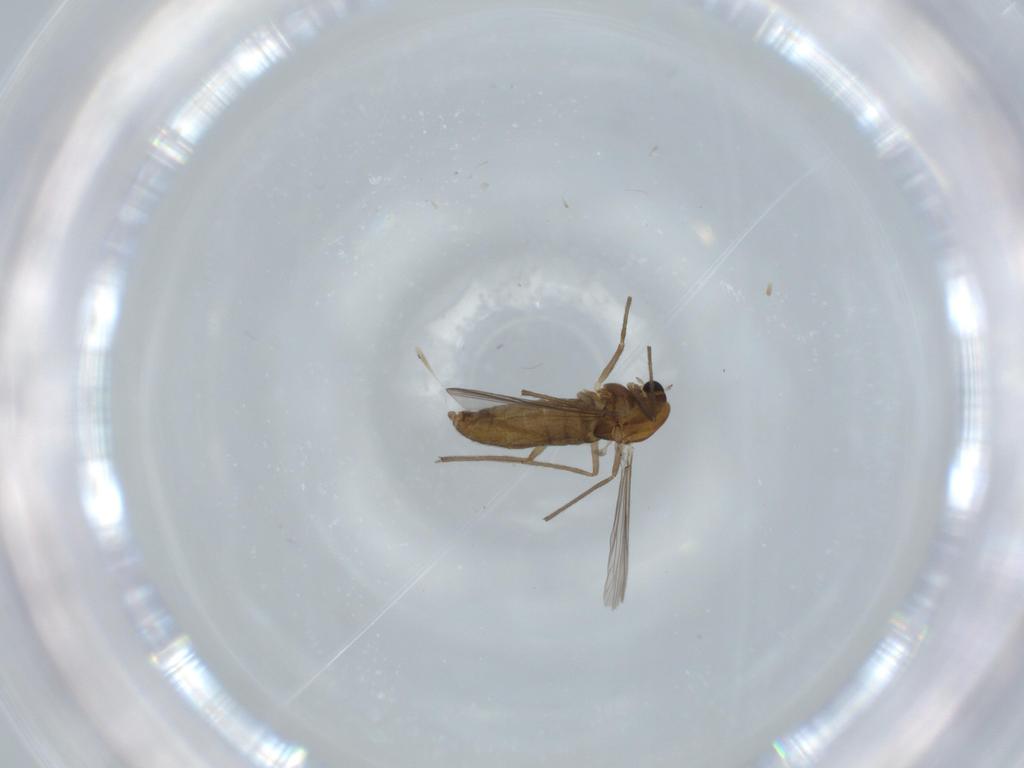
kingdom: Animalia
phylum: Arthropoda
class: Insecta
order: Diptera
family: Chironomidae
